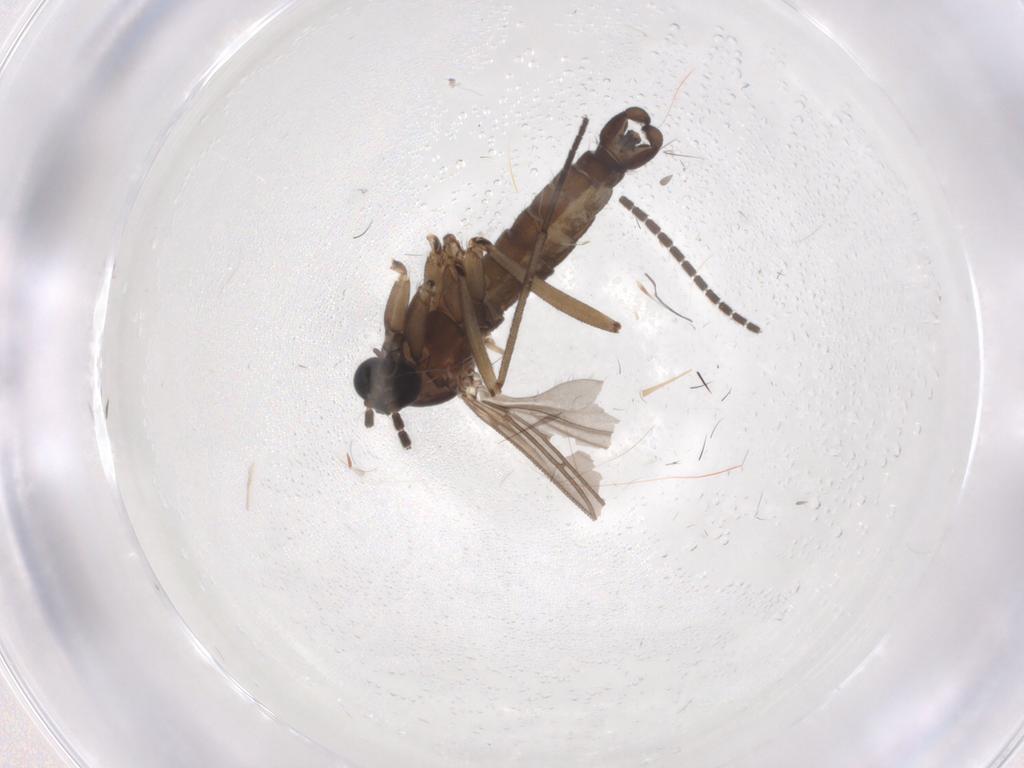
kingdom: Animalia
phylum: Arthropoda
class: Insecta
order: Diptera
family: Sciaridae
